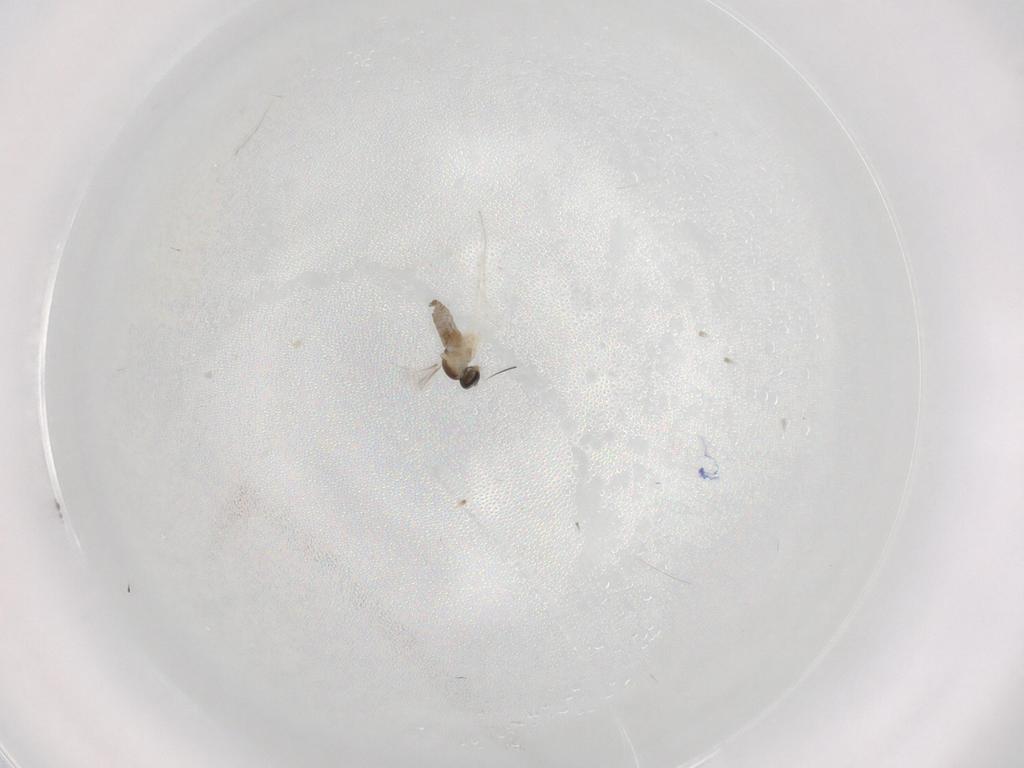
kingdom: Animalia
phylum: Arthropoda
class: Insecta
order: Diptera
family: Cecidomyiidae
